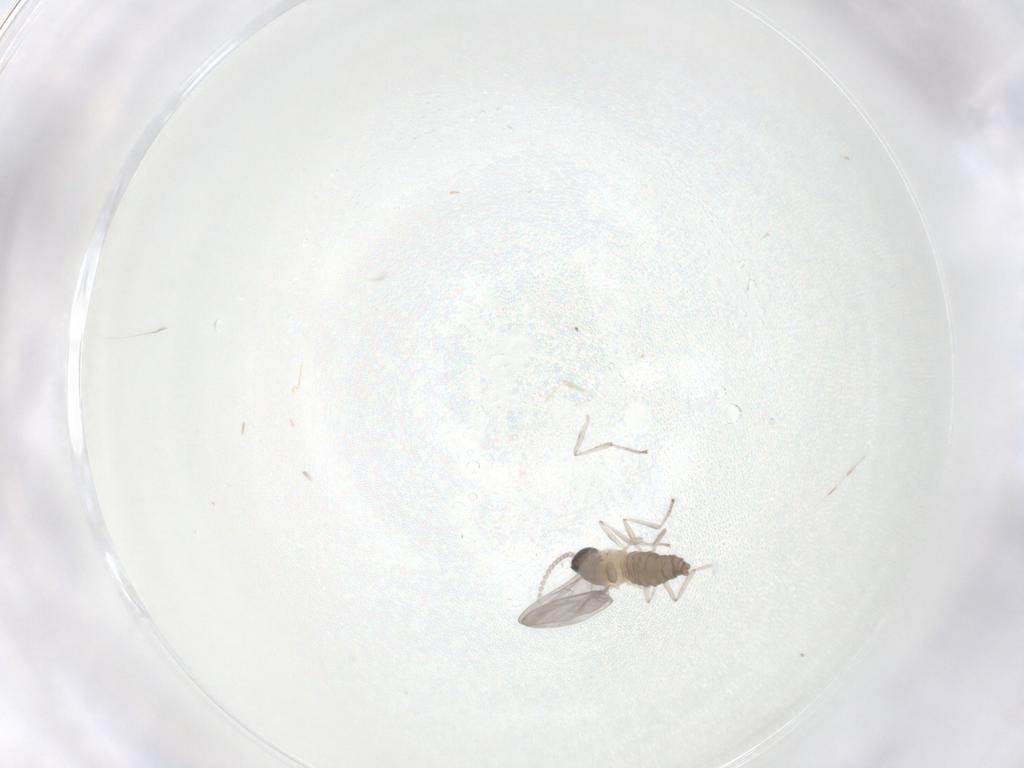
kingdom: Animalia
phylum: Arthropoda
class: Insecta
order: Diptera
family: Cecidomyiidae
